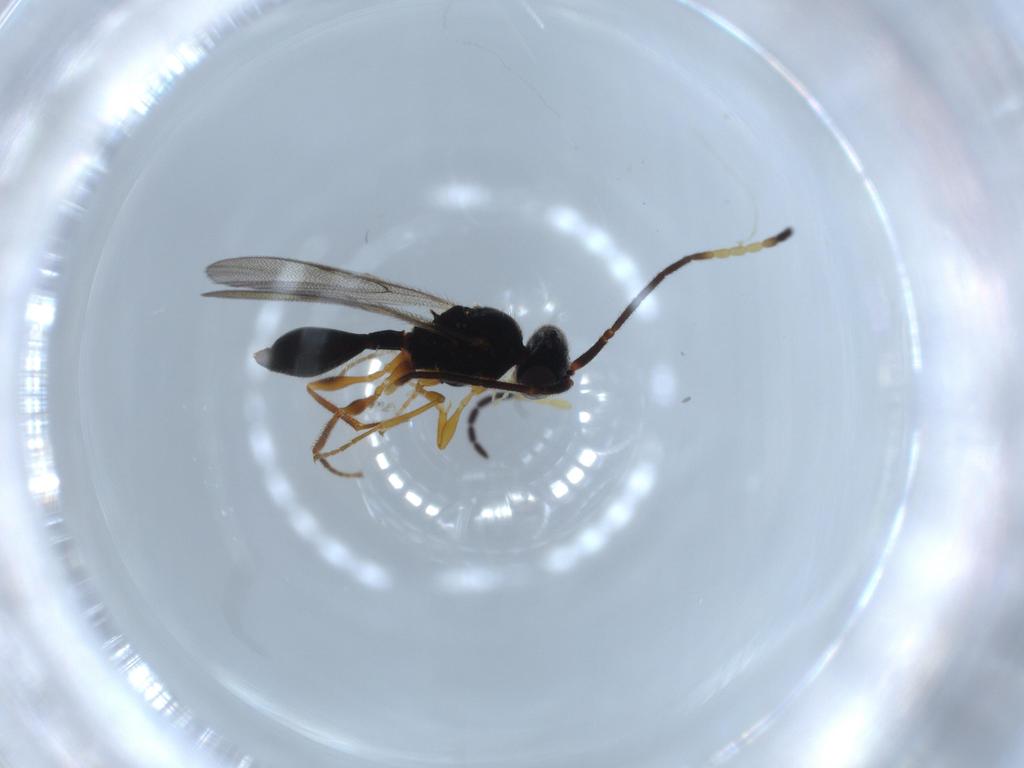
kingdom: Animalia
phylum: Arthropoda
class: Insecta
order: Hymenoptera
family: Diapriidae
